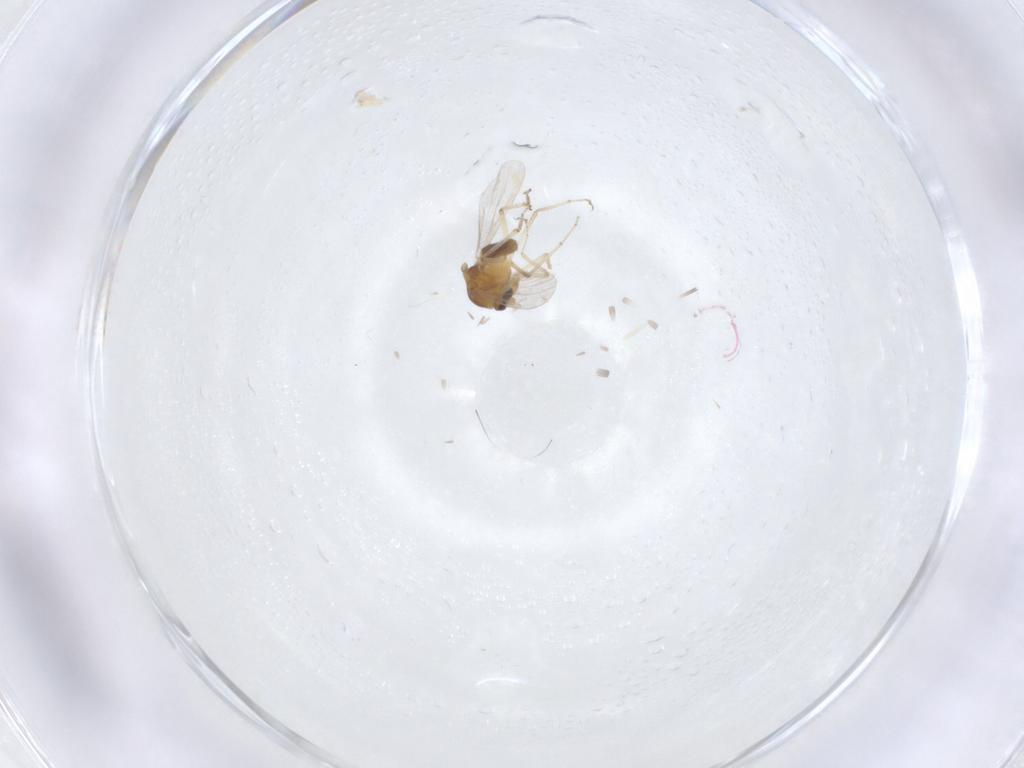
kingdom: Animalia
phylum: Arthropoda
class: Insecta
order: Diptera
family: Ceratopogonidae
